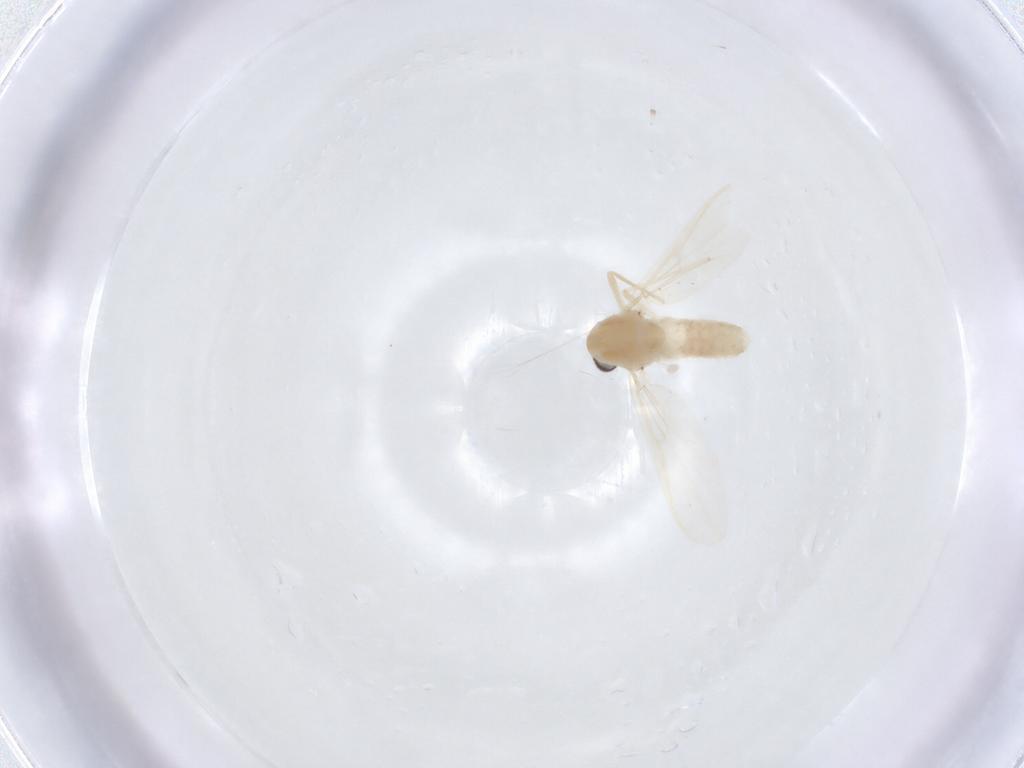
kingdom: Animalia
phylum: Arthropoda
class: Insecta
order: Diptera
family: Chironomidae
